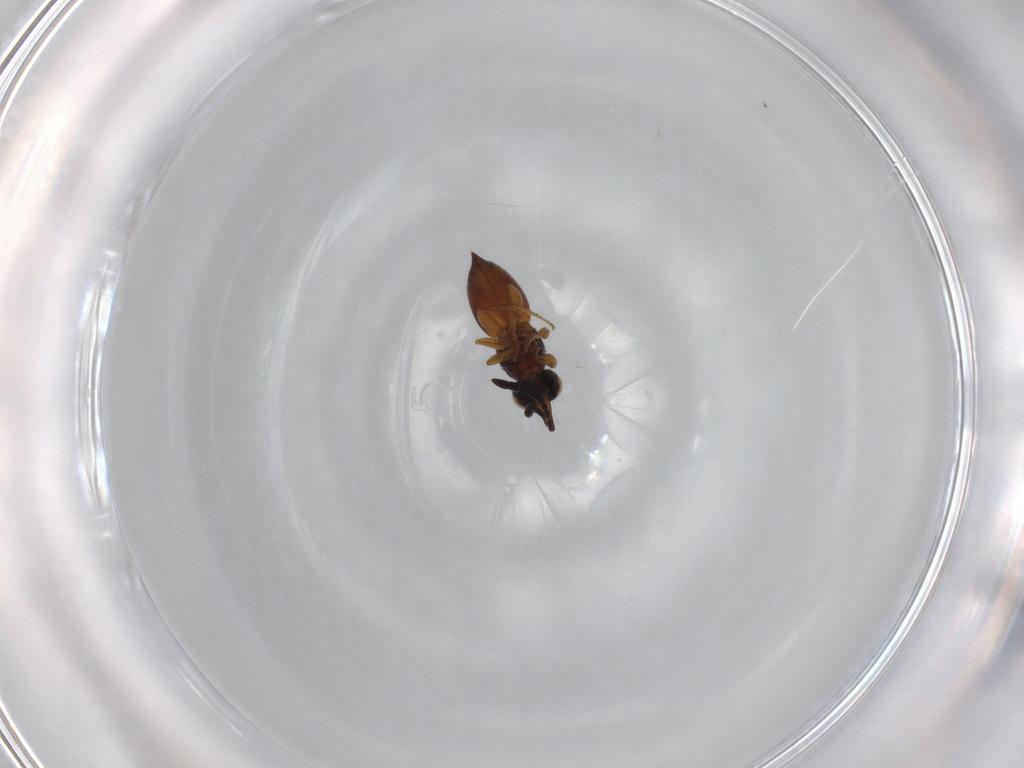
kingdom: Animalia
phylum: Arthropoda
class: Insecta
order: Hymenoptera
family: Ceraphronidae
